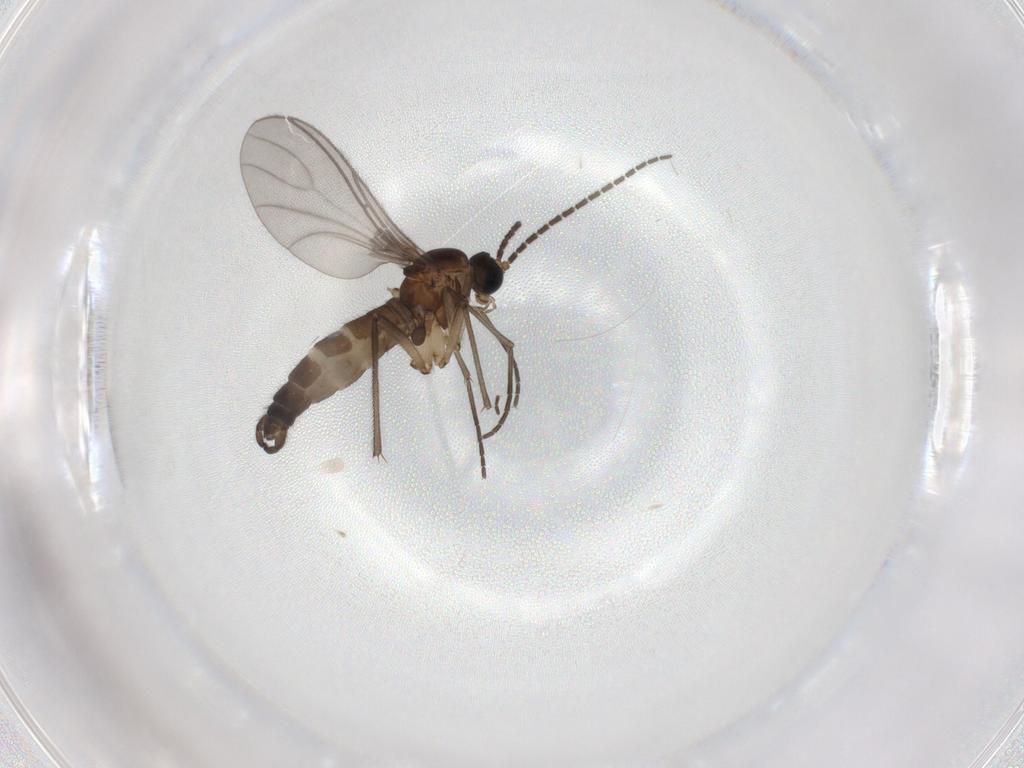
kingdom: Animalia
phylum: Arthropoda
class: Insecta
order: Diptera
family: Sciaridae
